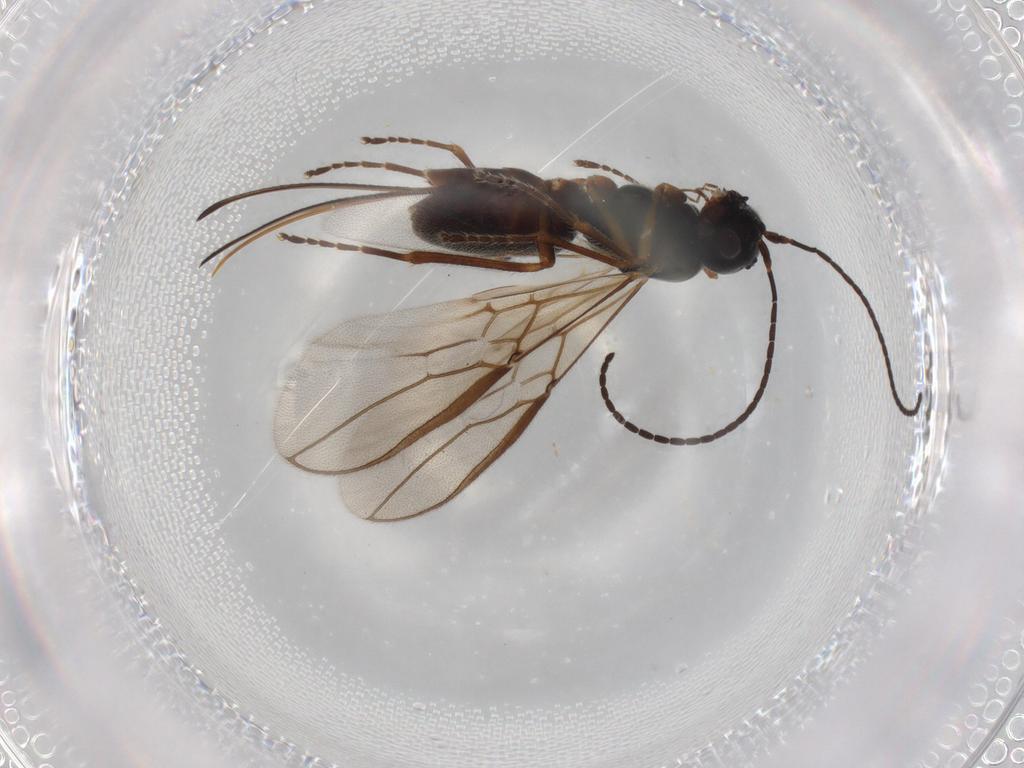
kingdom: Animalia
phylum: Arthropoda
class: Insecta
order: Hymenoptera
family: Braconidae
